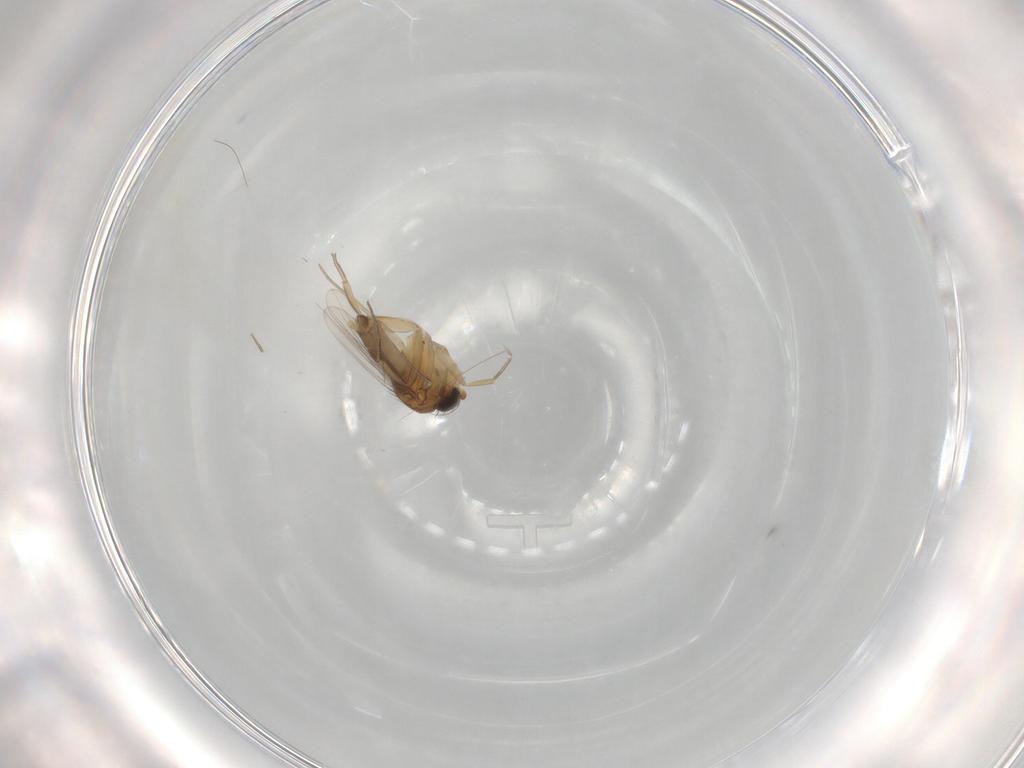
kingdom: Animalia
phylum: Arthropoda
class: Insecta
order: Diptera
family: Phoridae
